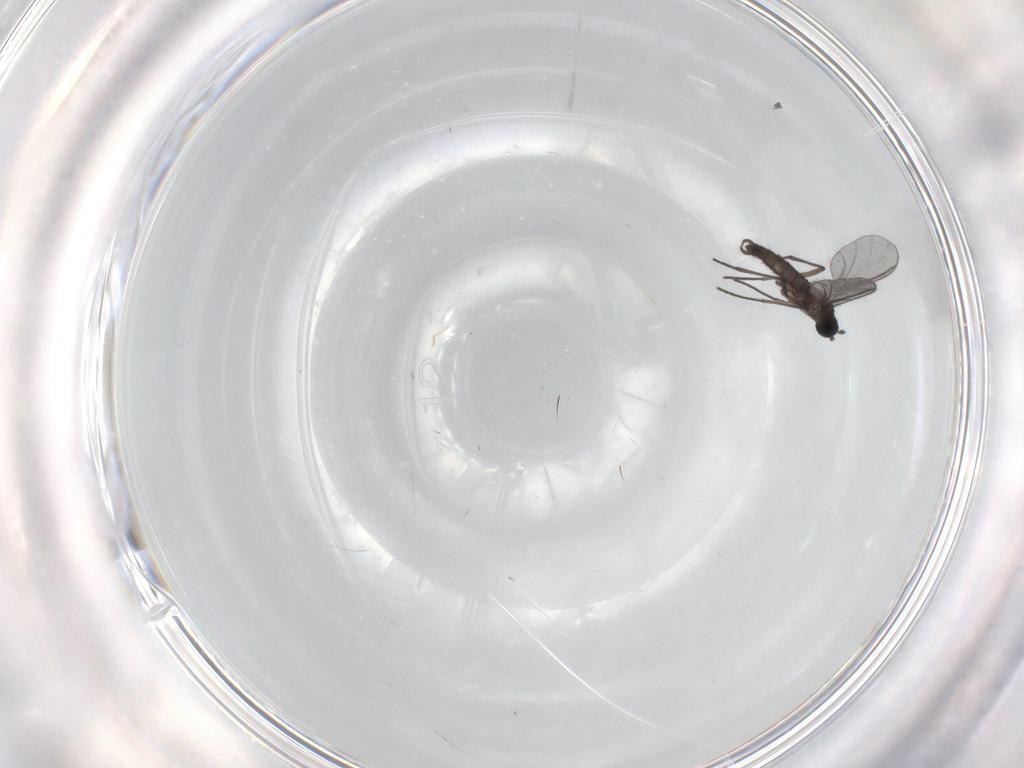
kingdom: Animalia
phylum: Arthropoda
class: Insecta
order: Diptera
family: Sciaridae
